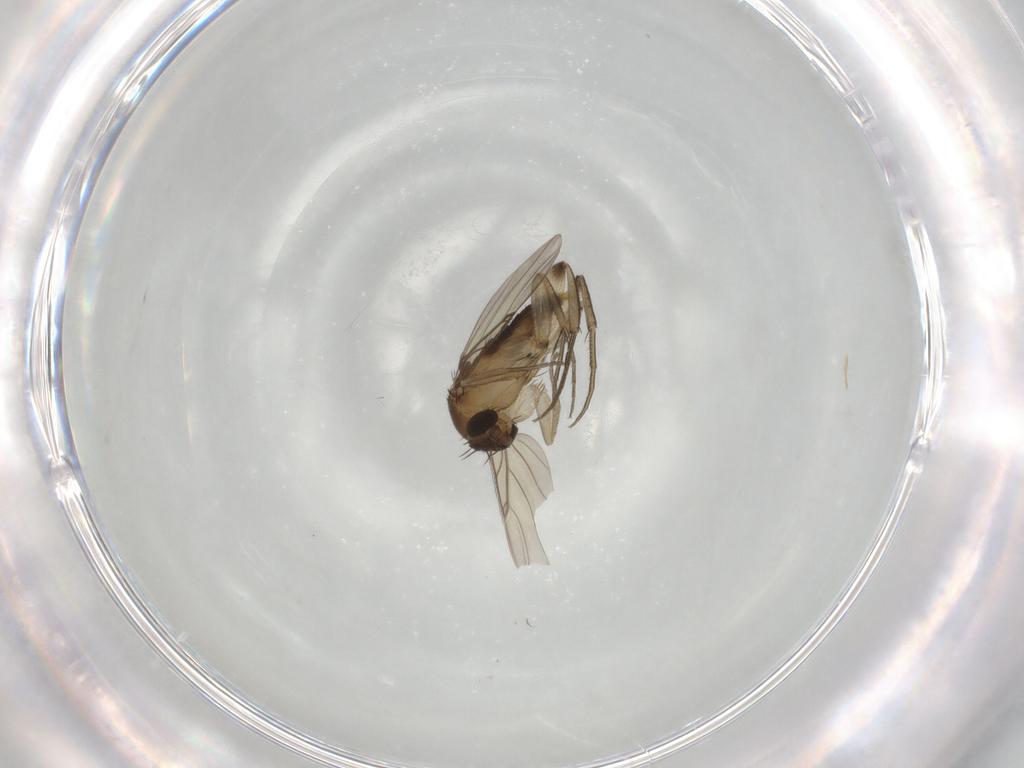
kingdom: Animalia
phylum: Arthropoda
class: Insecta
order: Diptera
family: Phoridae
